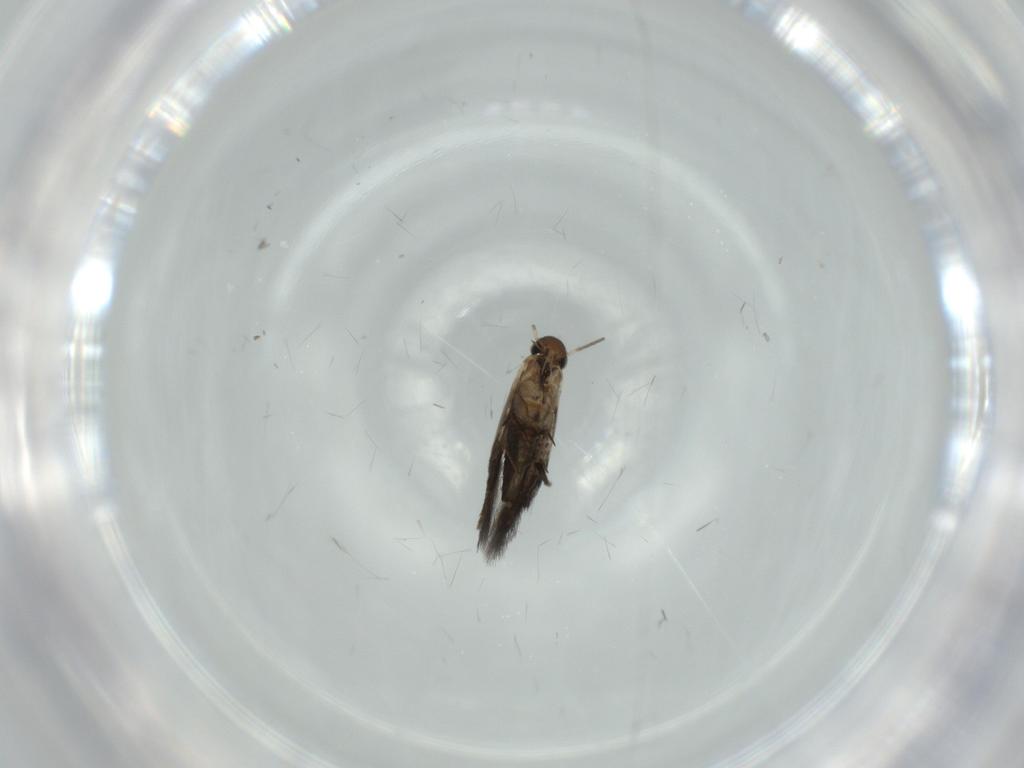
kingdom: Animalia
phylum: Arthropoda
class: Insecta
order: Lepidoptera
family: Heliozelidae
